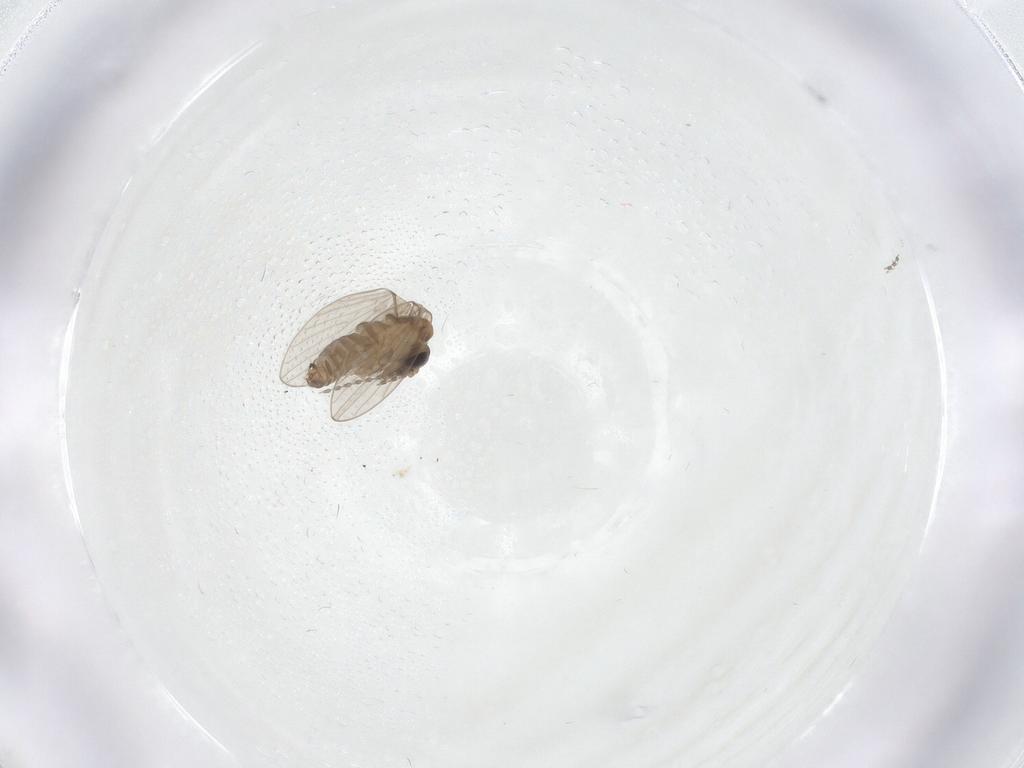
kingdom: Animalia
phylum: Arthropoda
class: Insecta
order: Diptera
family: Psychodidae
